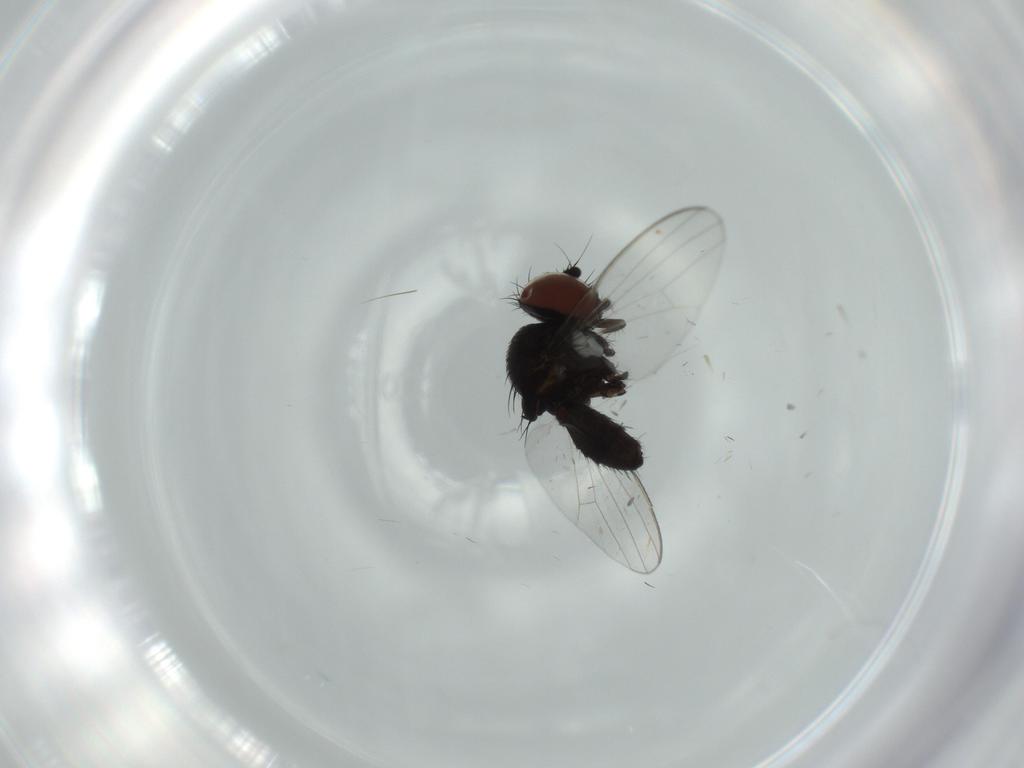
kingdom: Animalia
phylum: Arthropoda
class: Insecta
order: Diptera
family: Milichiidae
